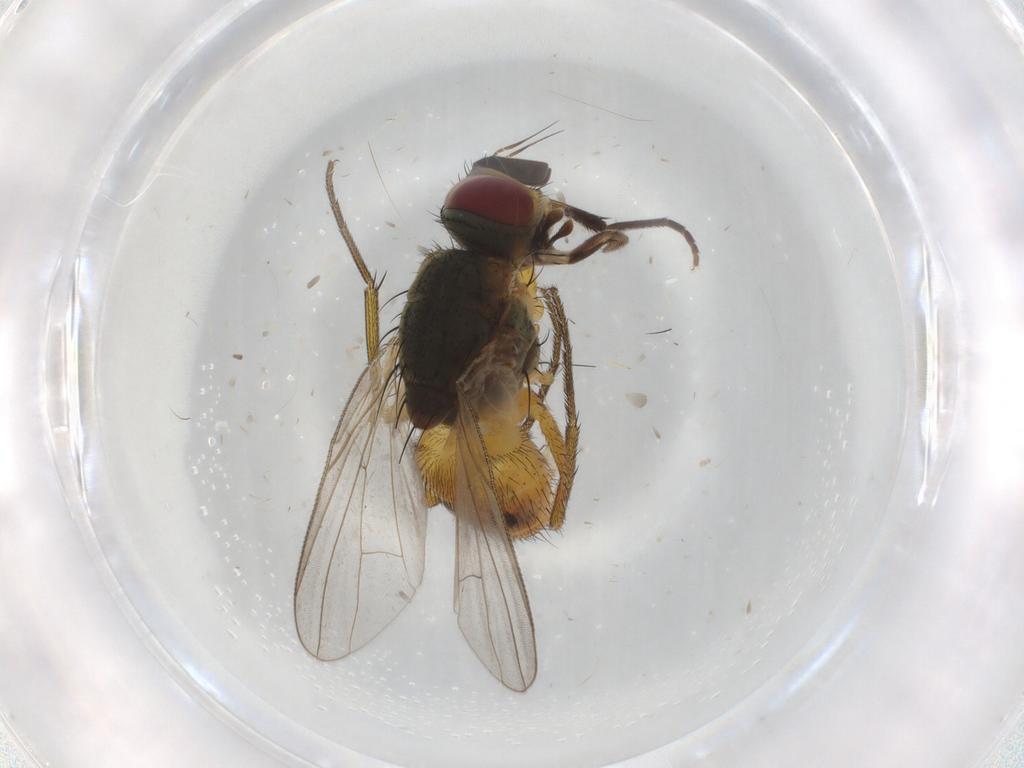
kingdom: Animalia
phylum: Arthropoda
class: Insecta
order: Diptera
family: Muscidae
